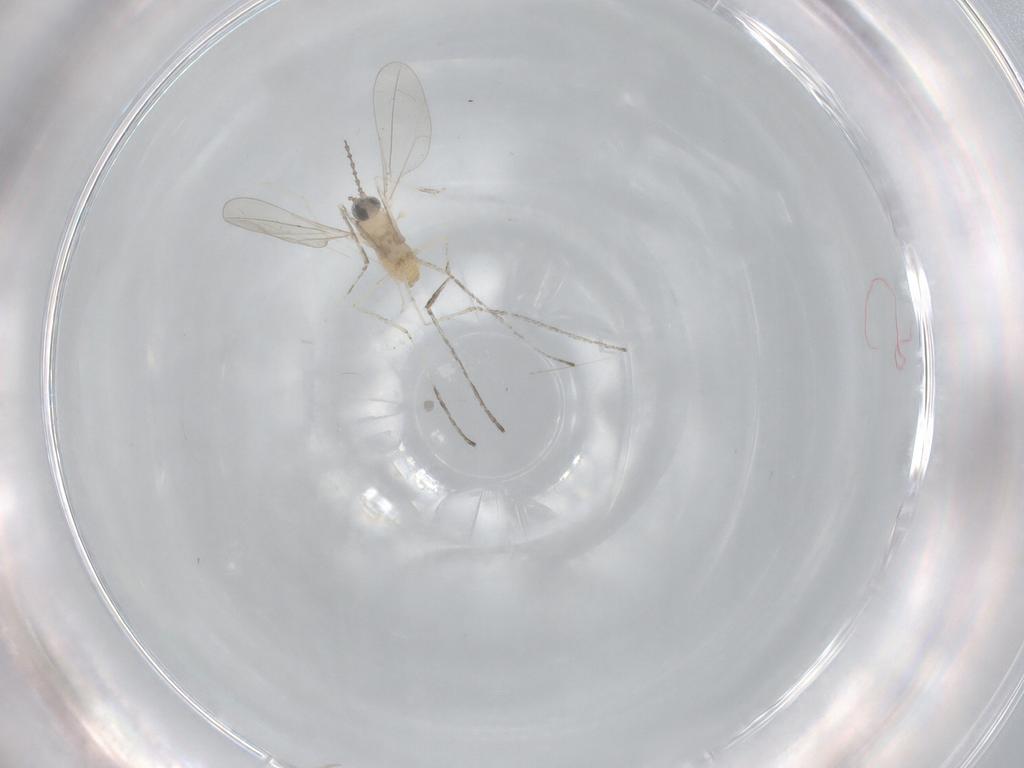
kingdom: Animalia
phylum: Arthropoda
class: Insecta
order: Diptera
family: Cecidomyiidae
